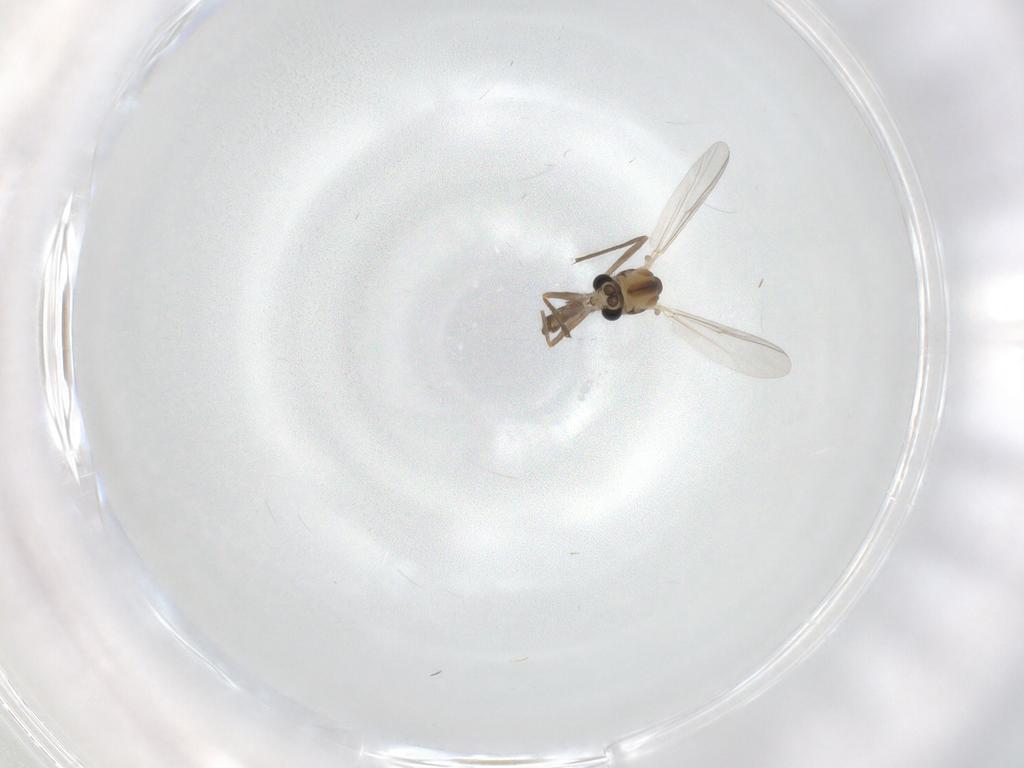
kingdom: Animalia
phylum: Arthropoda
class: Insecta
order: Diptera
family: Chironomidae
